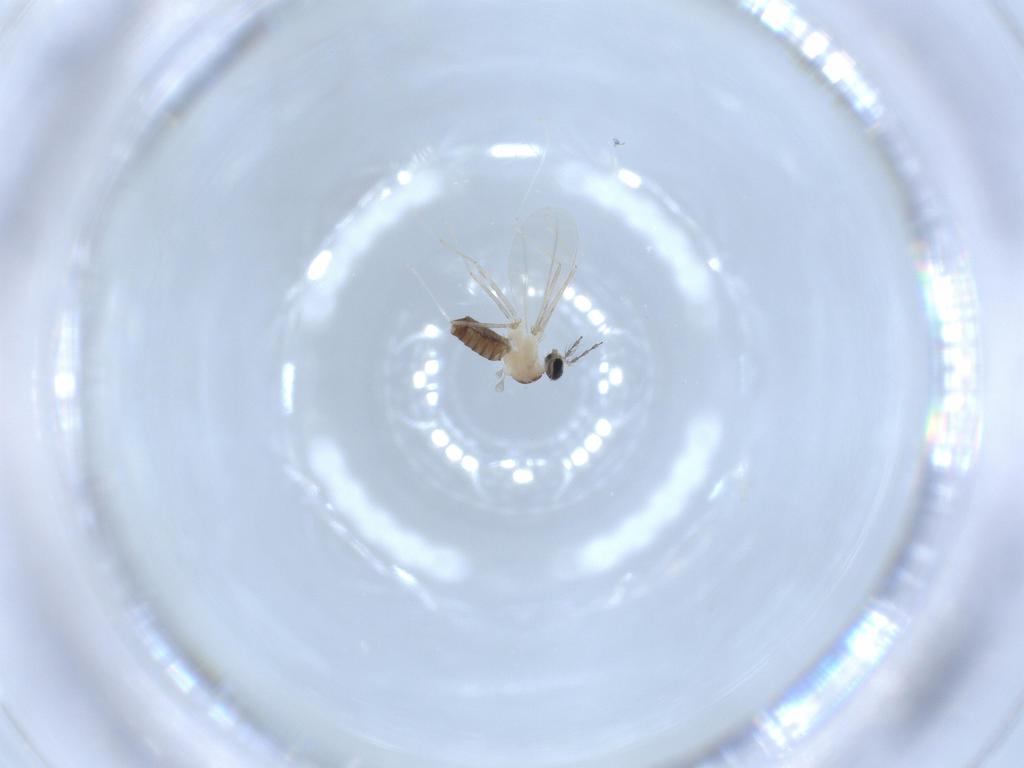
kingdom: Animalia
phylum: Arthropoda
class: Insecta
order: Diptera
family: Cecidomyiidae
